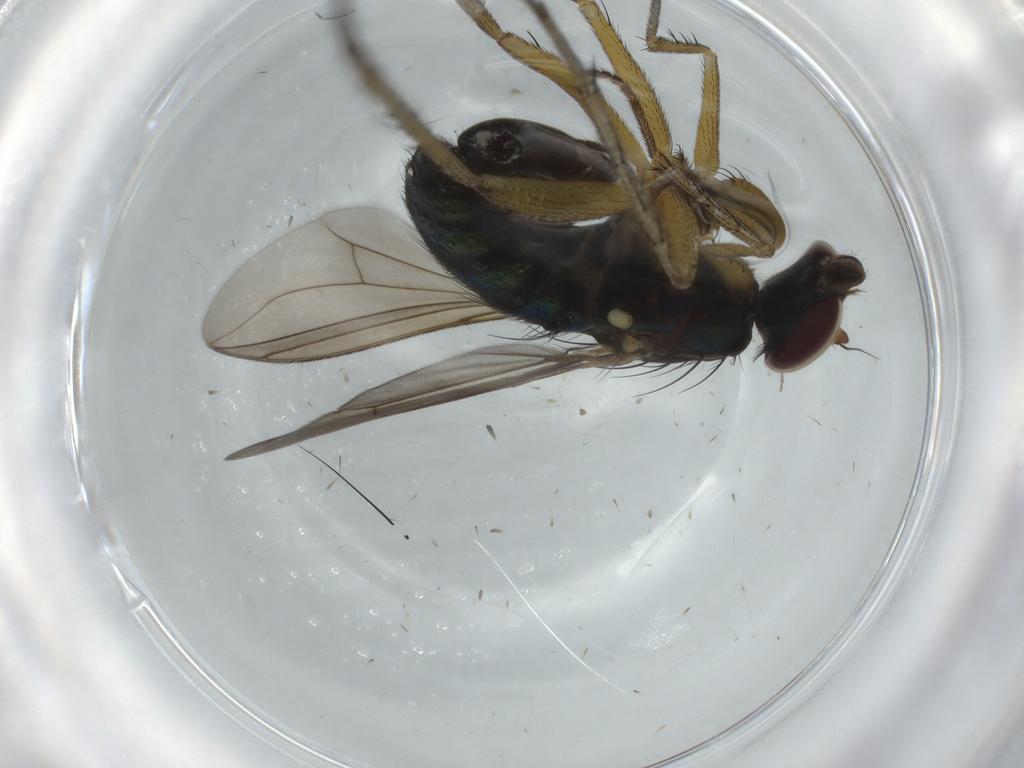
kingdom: Animalia
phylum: Arthropoda
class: Insecta
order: Diptera
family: Dolichopodidae
